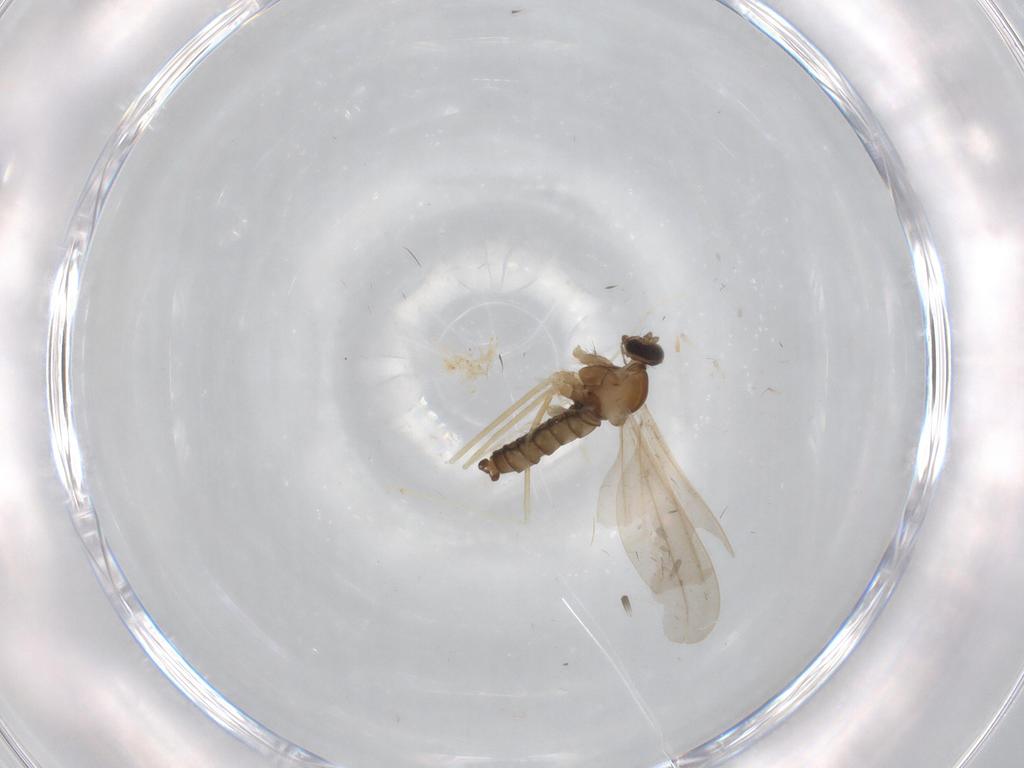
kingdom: Animalia
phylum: Arthropoda
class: Insecta
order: Diptera
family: Cecidomyiidae
